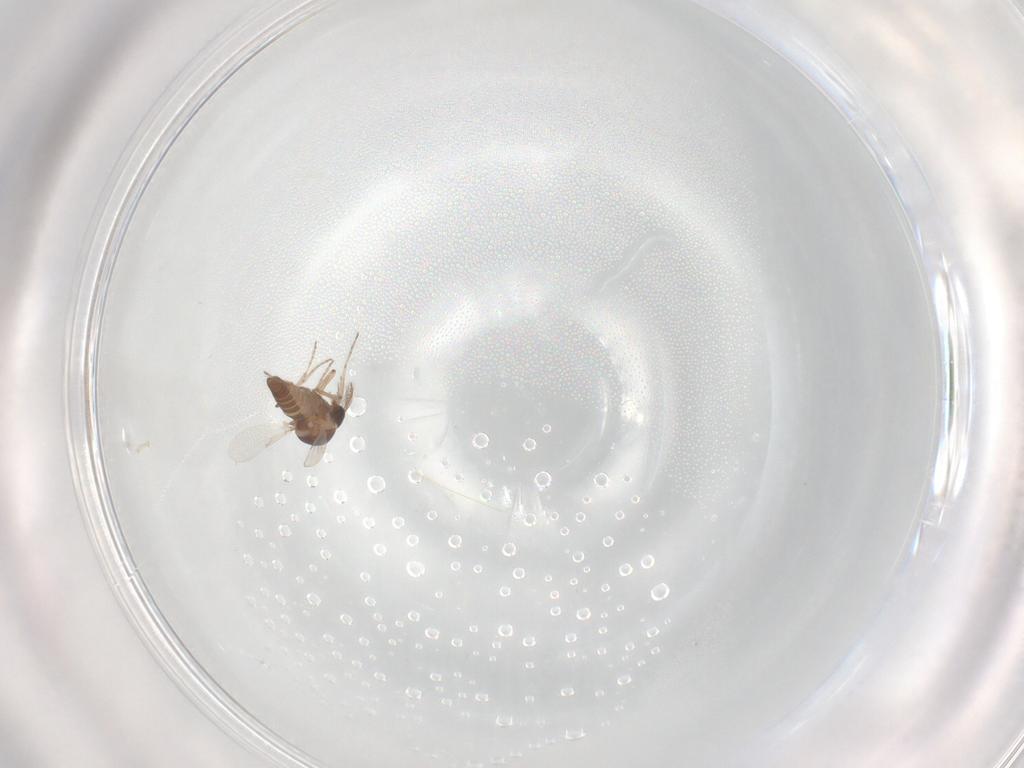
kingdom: Animalia
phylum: Arthropoda
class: Insecta
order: Diptera
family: Ceratopogonidae
